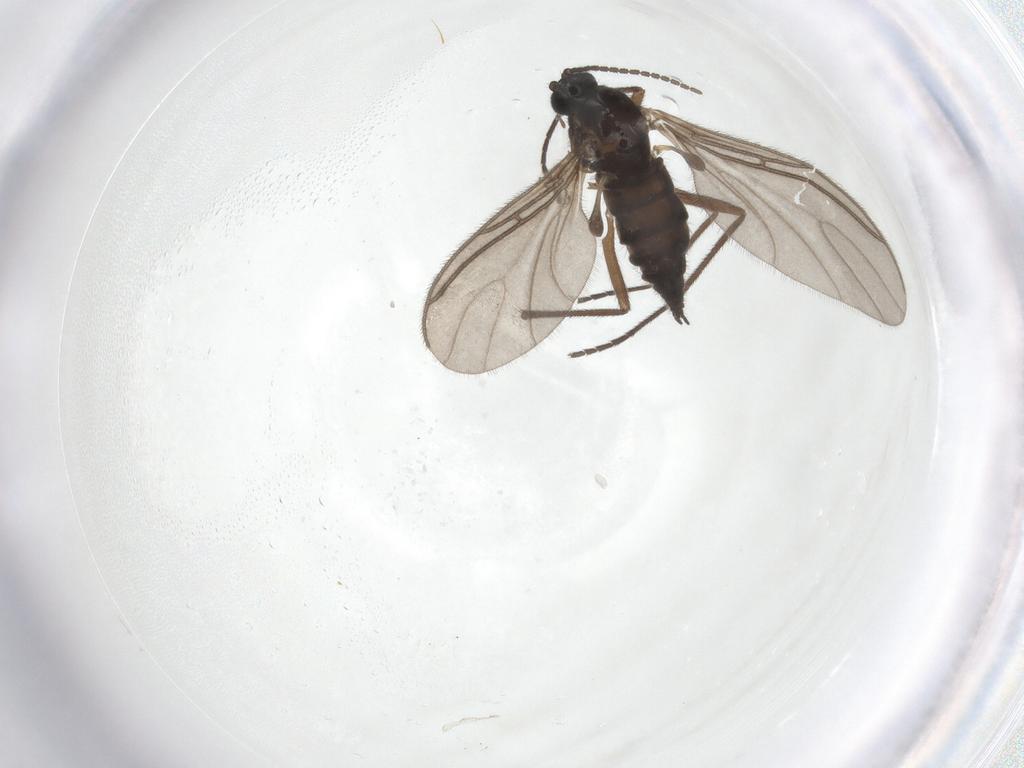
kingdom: Animalia
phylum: Arthropoda
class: Insecta
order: Diptera
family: Sciaridae
